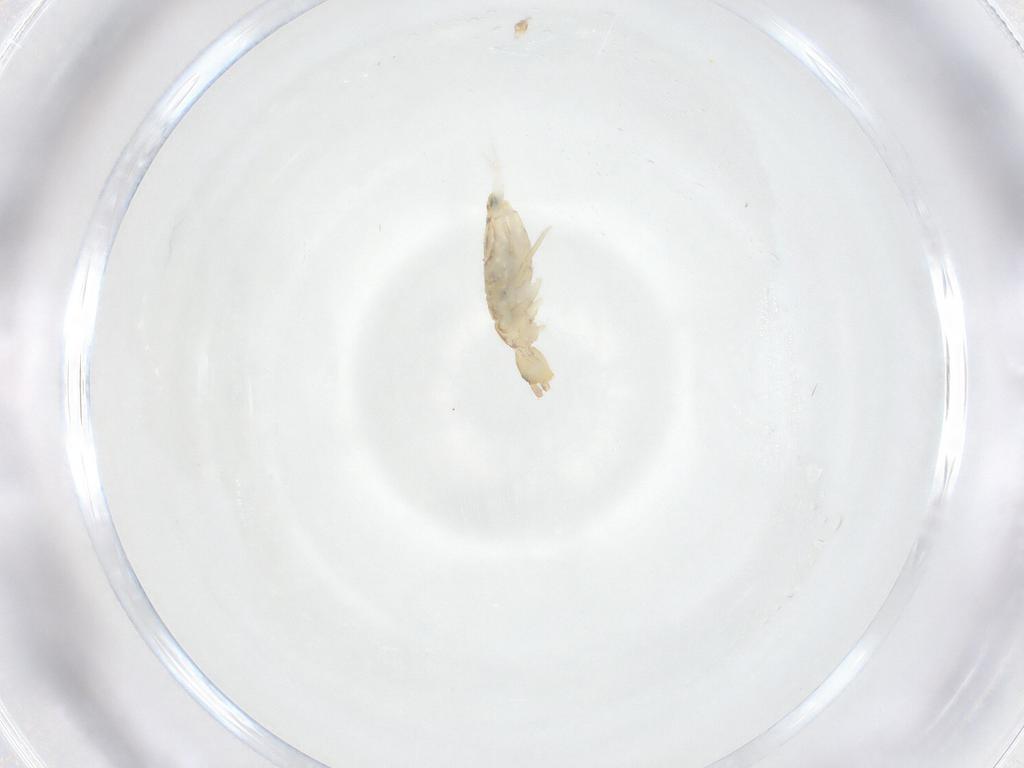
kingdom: Animalia
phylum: Arthropoda
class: Collembola
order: Entomobryomorpha
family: Entomobryidae
